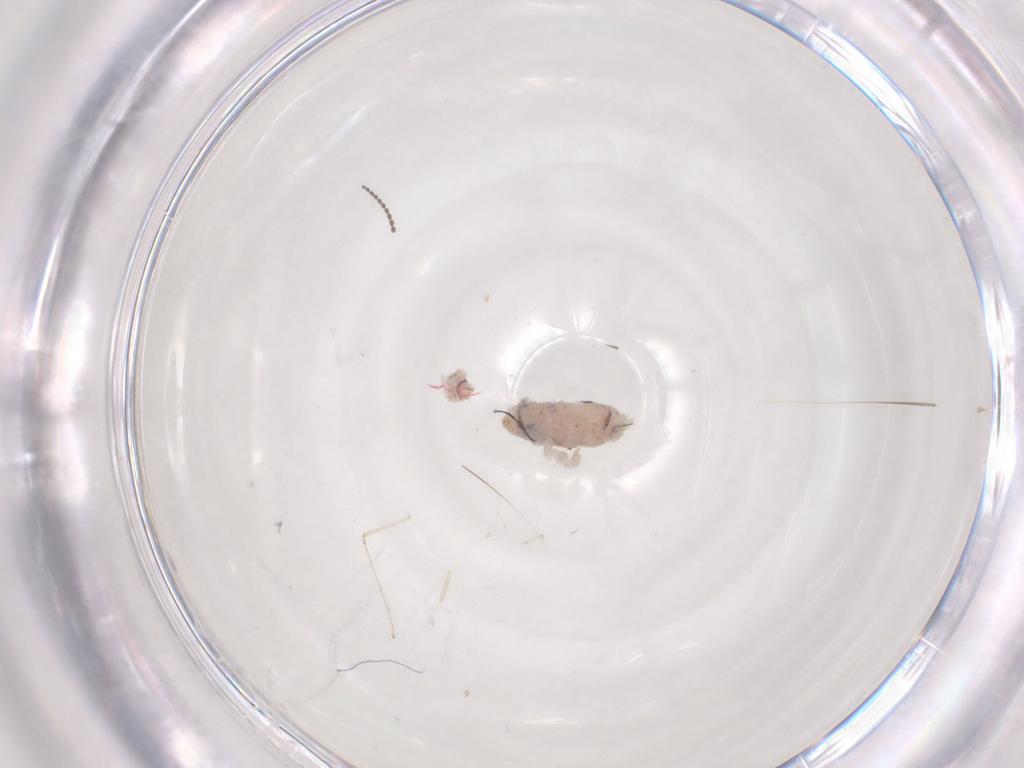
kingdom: Animalia
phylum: Arthropoda
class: Insecta
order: Diptera
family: Cecidomyiidae
